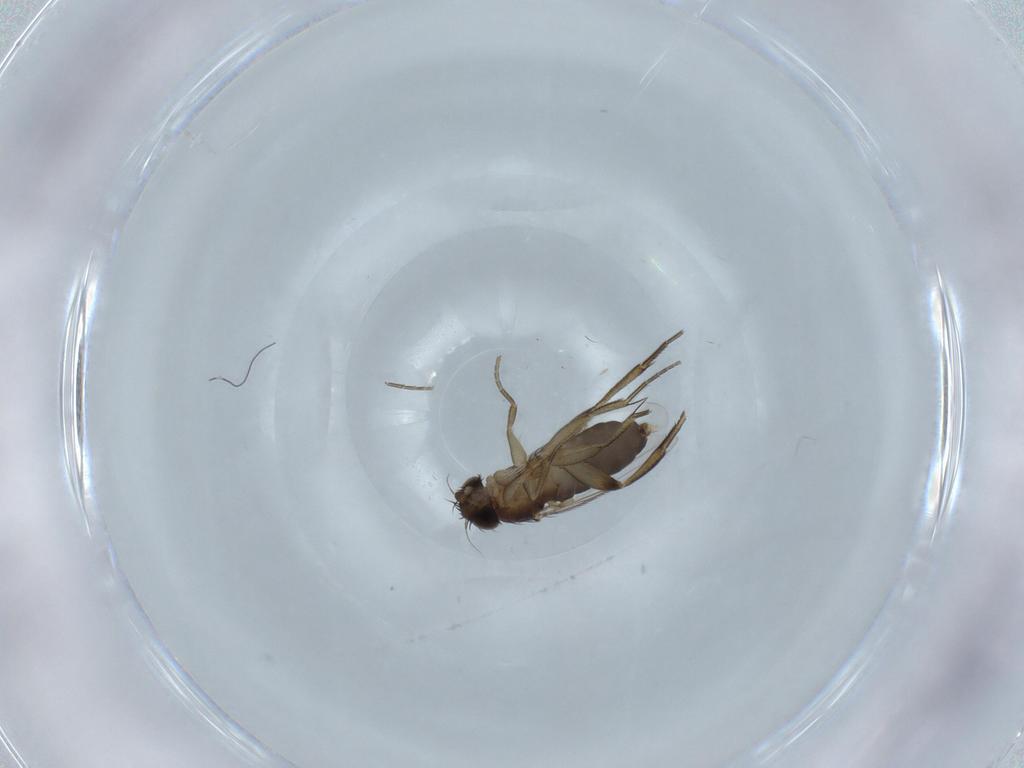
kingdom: Animalia
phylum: Arthropoda
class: Insecta
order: Diptera
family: Phoridae
